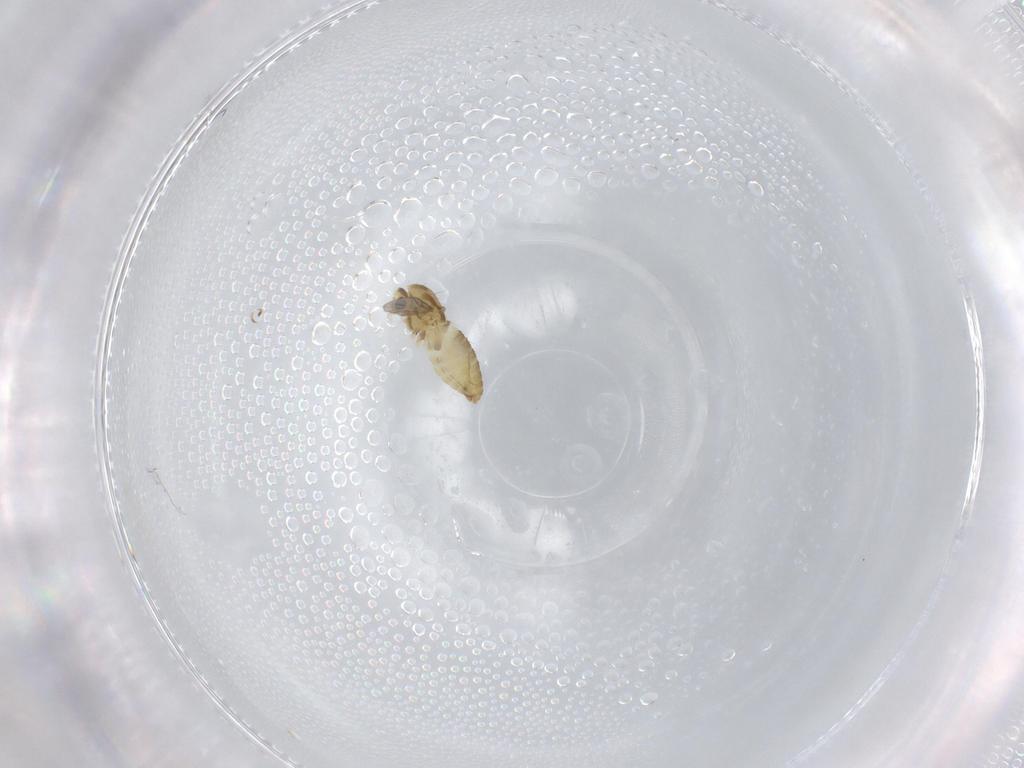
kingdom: Animalia
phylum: Arthropoda
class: Insecta
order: Diptera
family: Chironomidae
